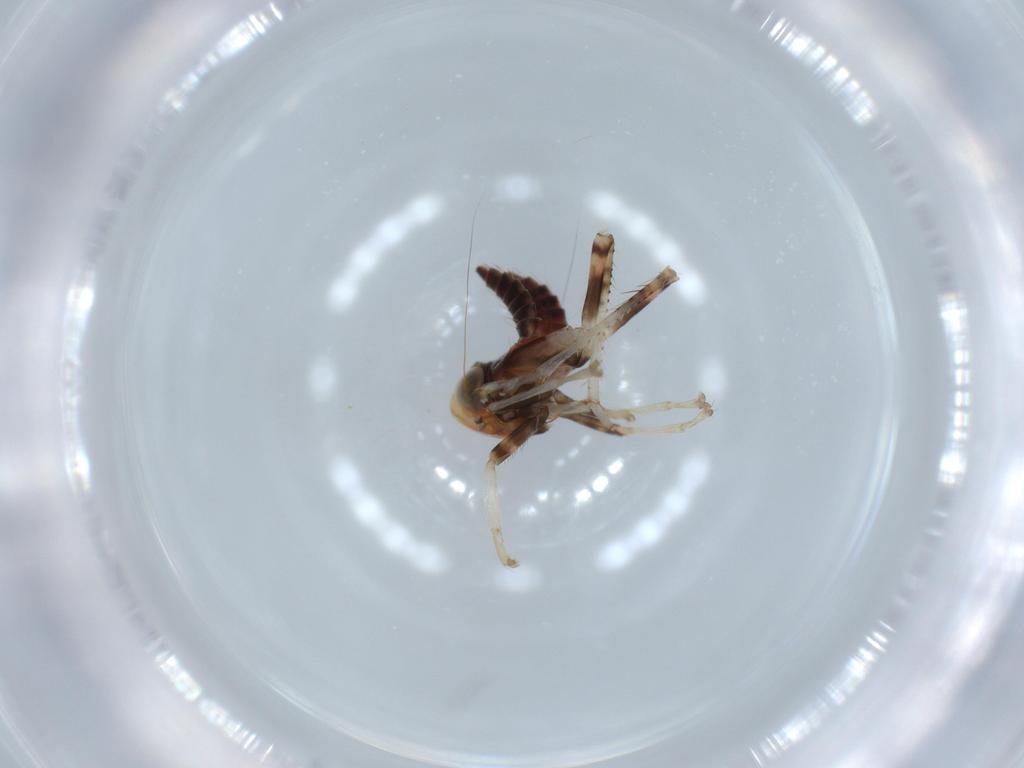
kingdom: Animalia
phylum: Arthropoda
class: Insecta
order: Hemiptera
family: Cicadellidae
